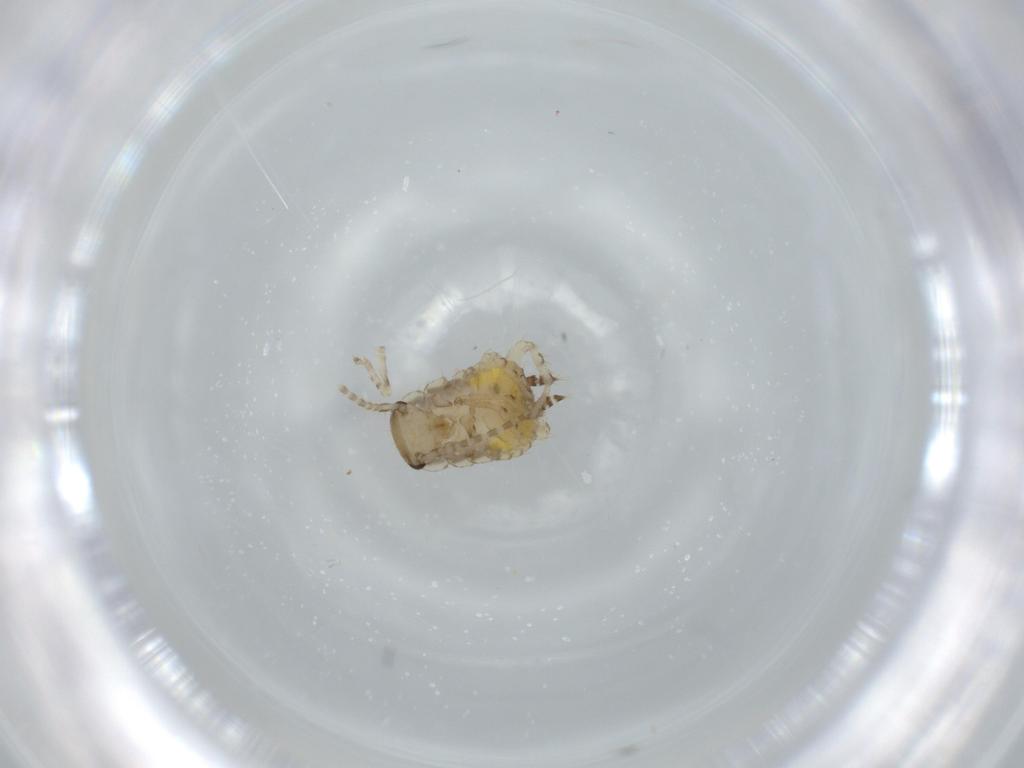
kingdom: Animalia
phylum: Arthropoda
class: Insecta
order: Blattodea
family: Ectobiidae
